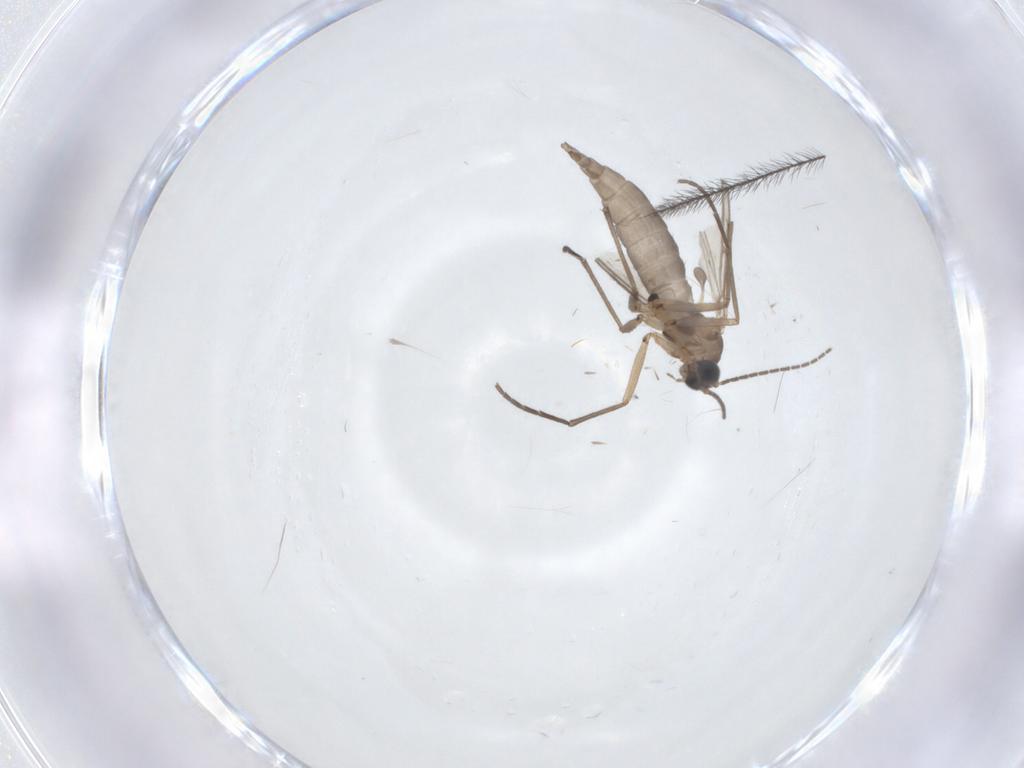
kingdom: Animalia
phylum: Arthropoda
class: Insecta
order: Diptera
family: Sciaridae
